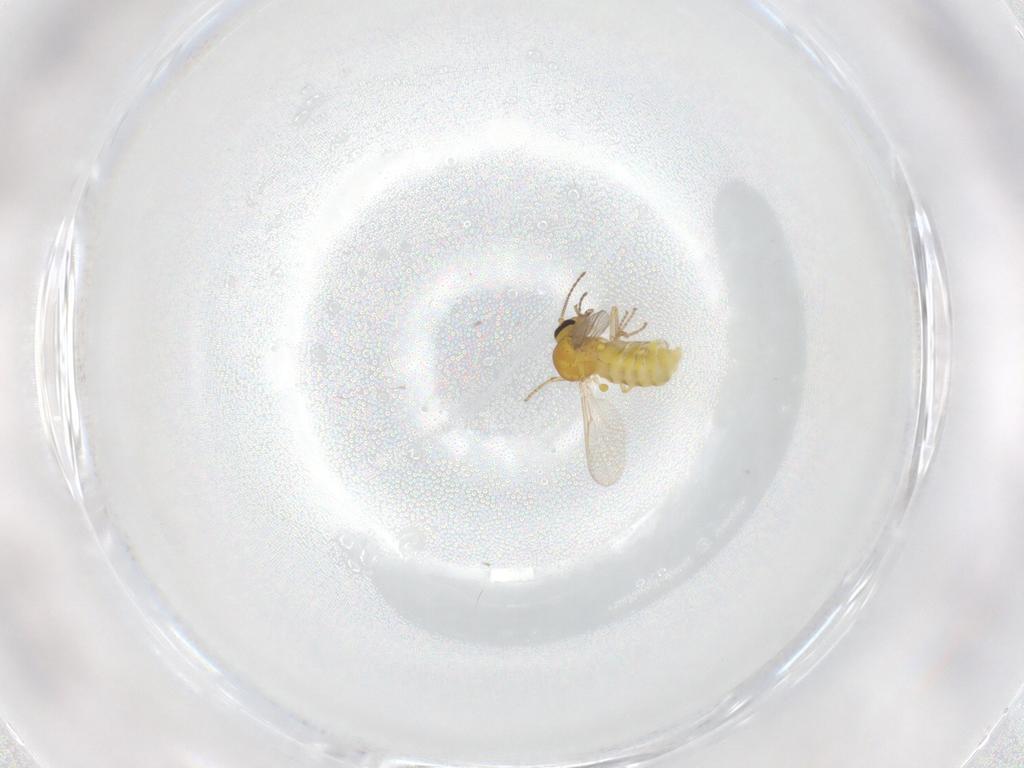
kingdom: Animalia
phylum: Arthropoda
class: Insecta
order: Diptera
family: Ceratopogonidae
